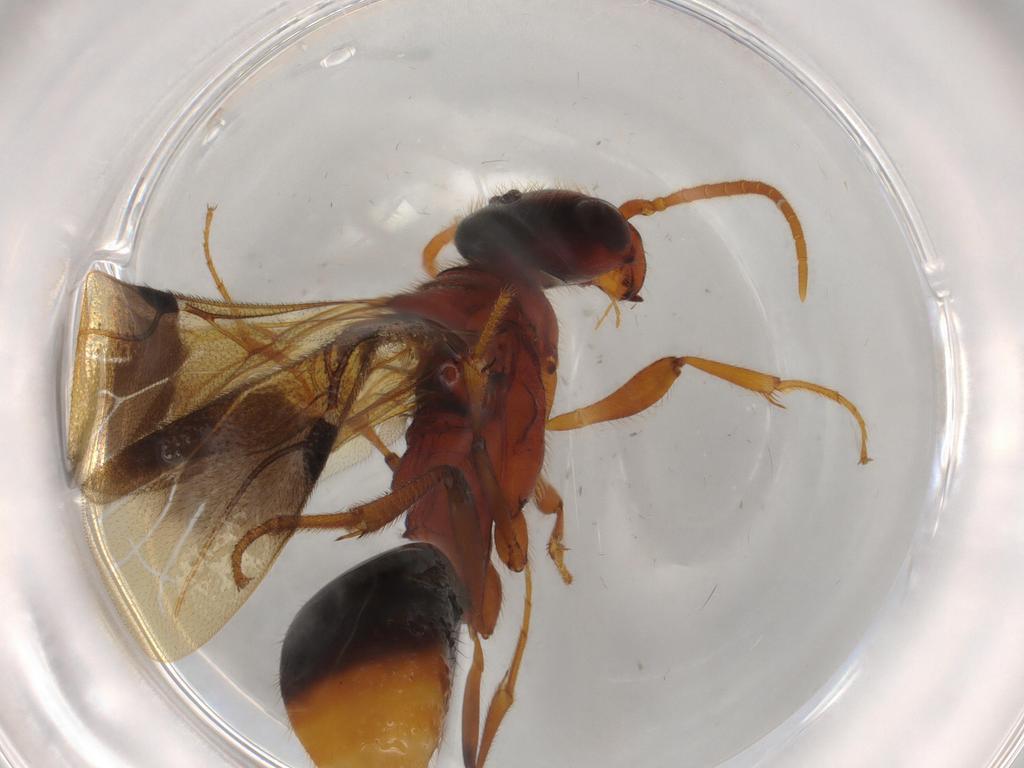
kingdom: Animalia
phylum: Arthropoda
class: Insecta
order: Hymenoptera
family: Bethylidae
